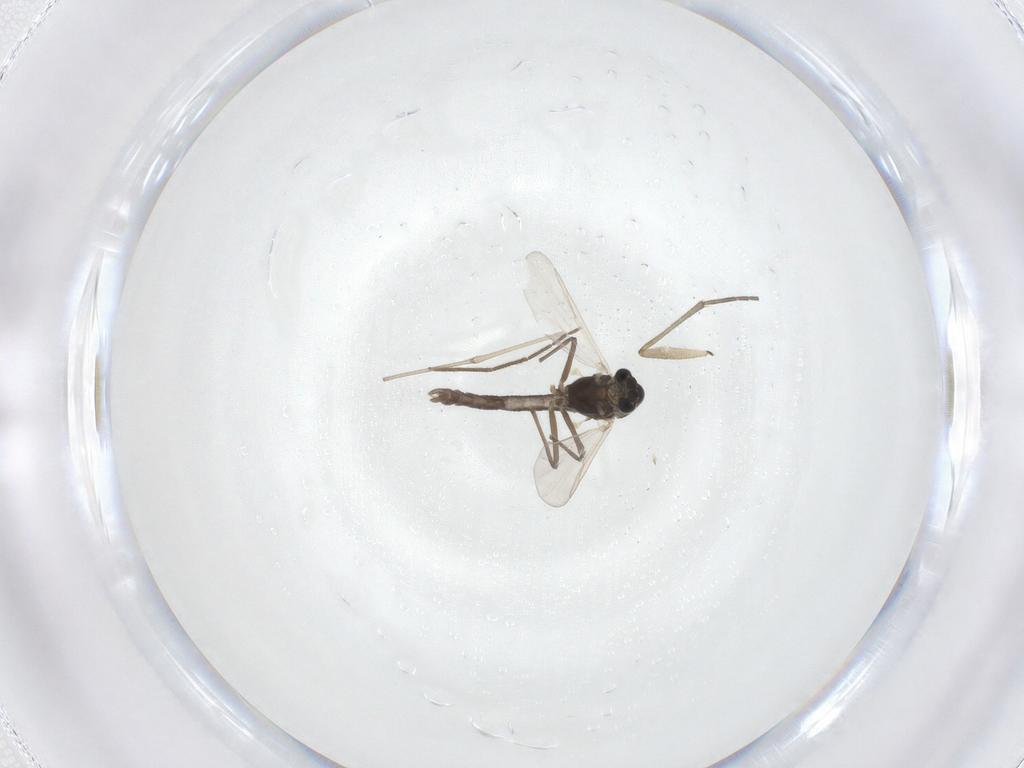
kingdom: Animalia
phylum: Arthropoda
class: Insecta
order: Diptera
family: Chironomidae
